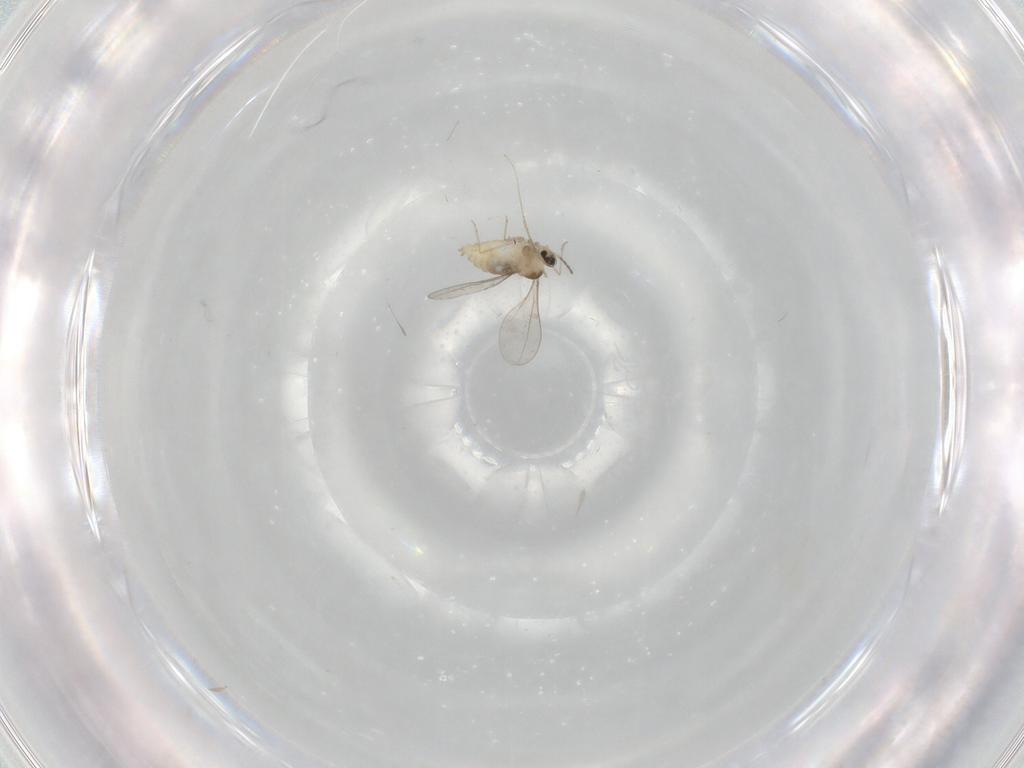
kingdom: Animalia
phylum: Arthropoda
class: Insecta
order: Diptera
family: Cecidomyiidae
